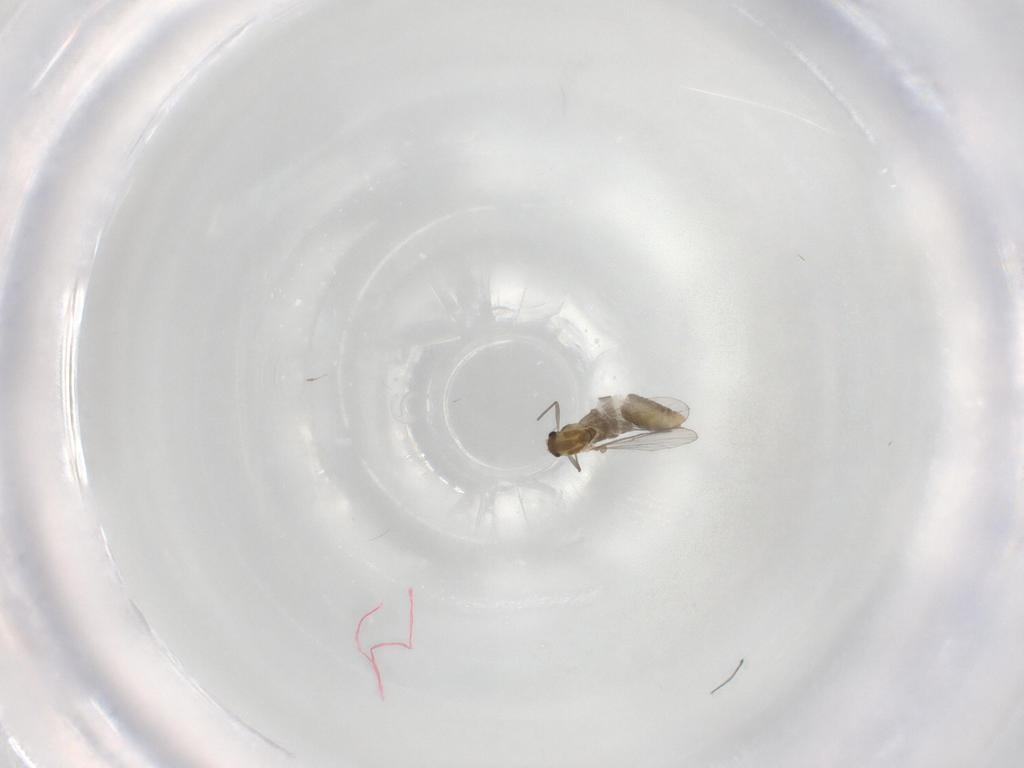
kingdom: Animalia
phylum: Arthropoda
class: Insecta
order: Diptera
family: Chironomidae
